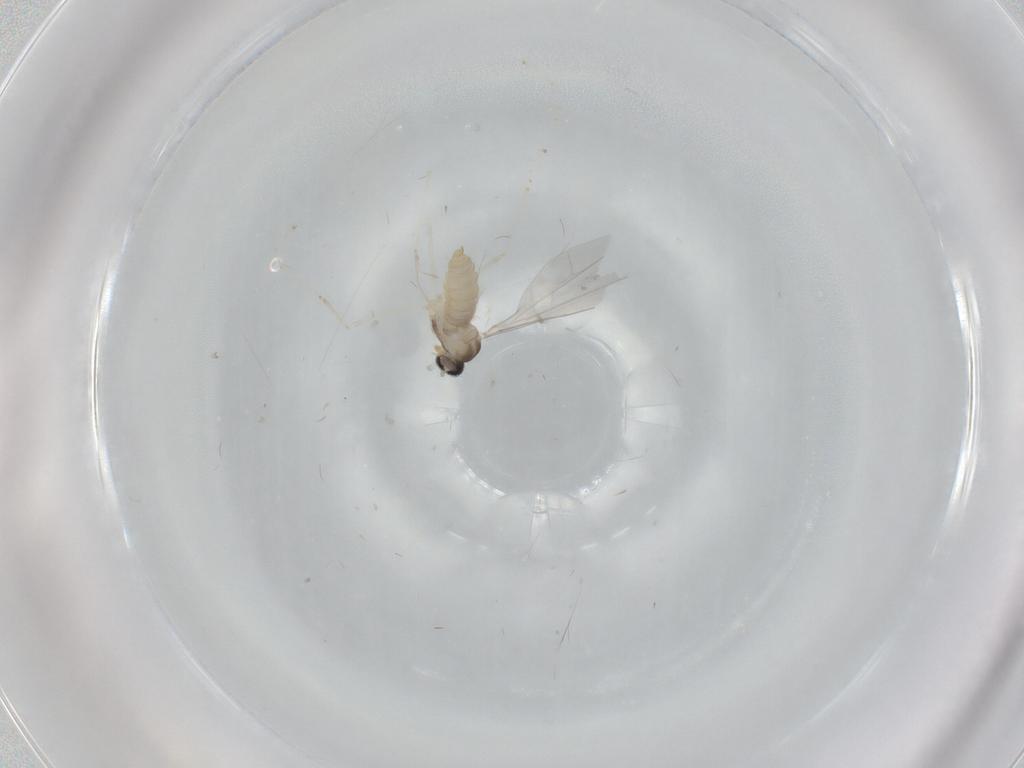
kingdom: Animalia
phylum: Arthropoda
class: Insecta
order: Diptera
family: Cecidomyiidae
